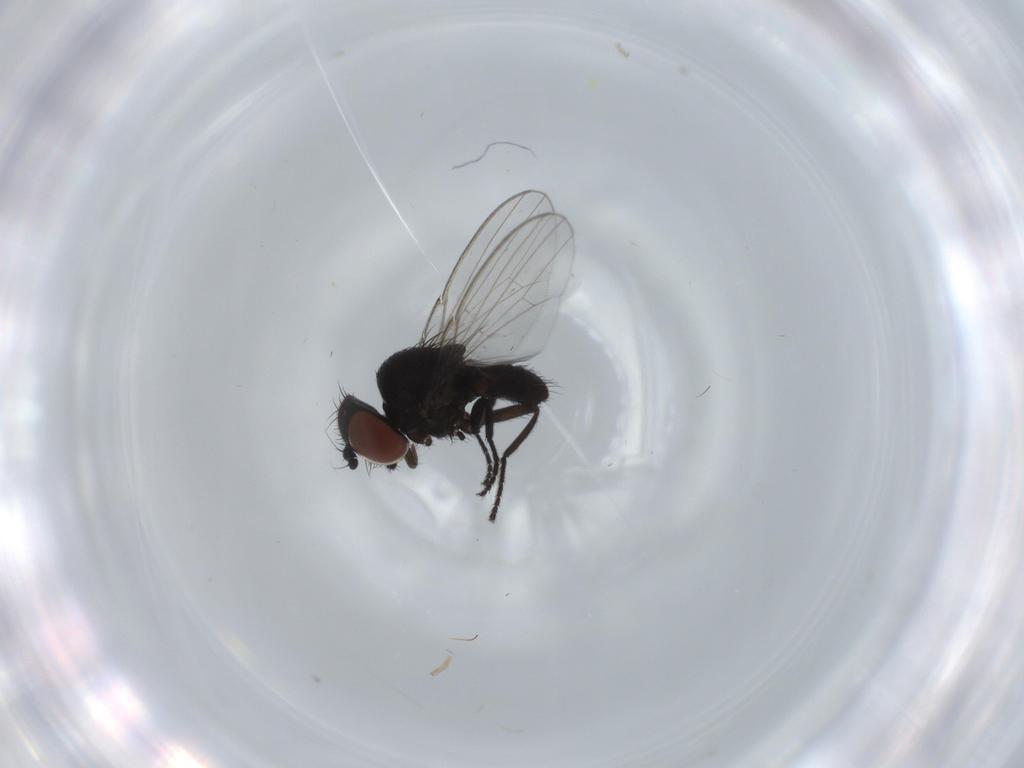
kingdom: Animalia
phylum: Arthropoda
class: Insecta
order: Diptera
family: Milichiidae
